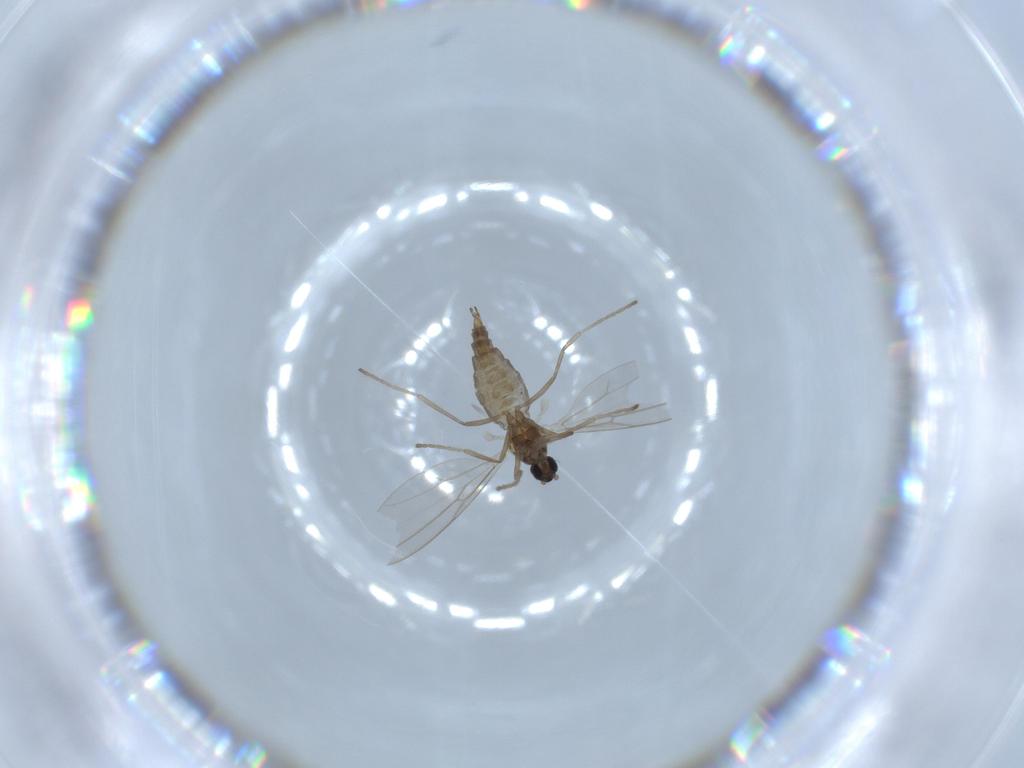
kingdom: Animalia
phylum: Arthropoda
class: Insecta
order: Diptera
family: Cecidomyiidae
